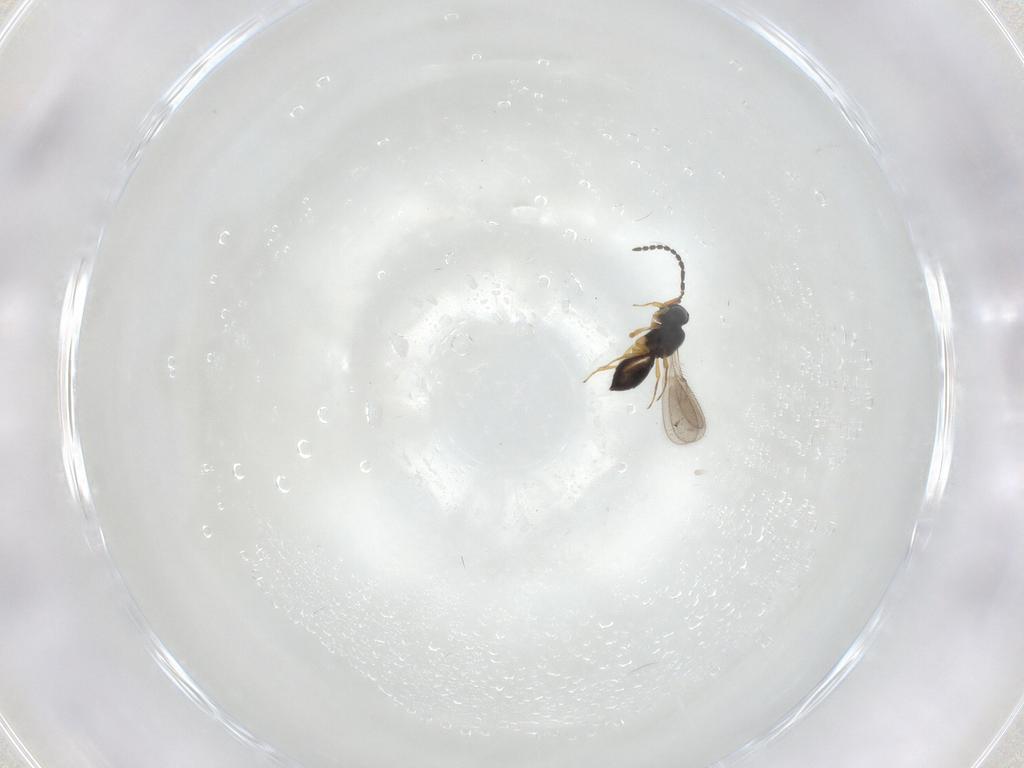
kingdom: Animalia
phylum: Arthropoda
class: Insecta
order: Hymenoptera
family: Scelionidae
